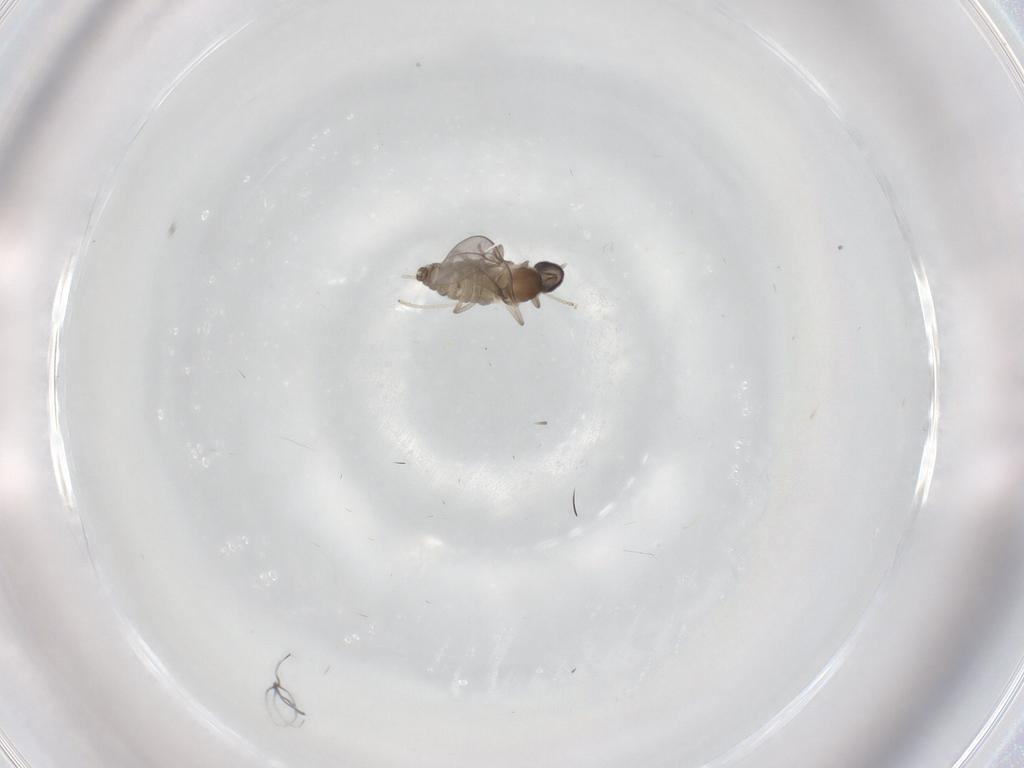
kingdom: Animalia
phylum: Arthropoda
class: Insecta
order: Diptera
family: Cecidomyiidae
